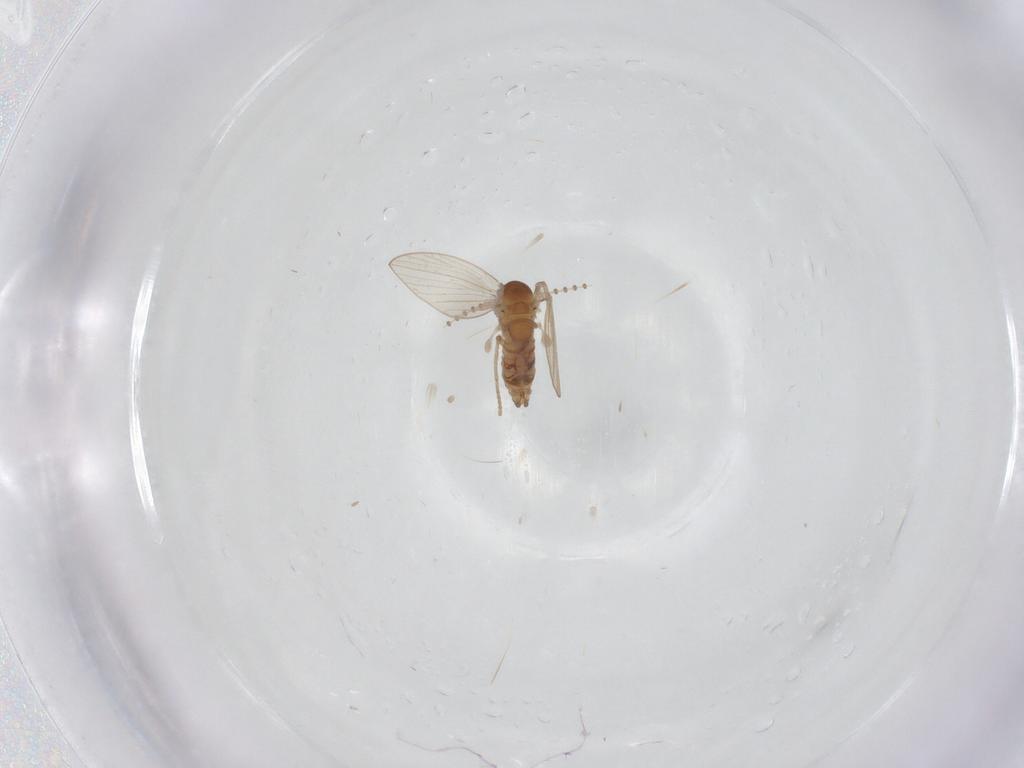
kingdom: Animalia
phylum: Arthropoda
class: Insecta
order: Diptera
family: Psychodidae
